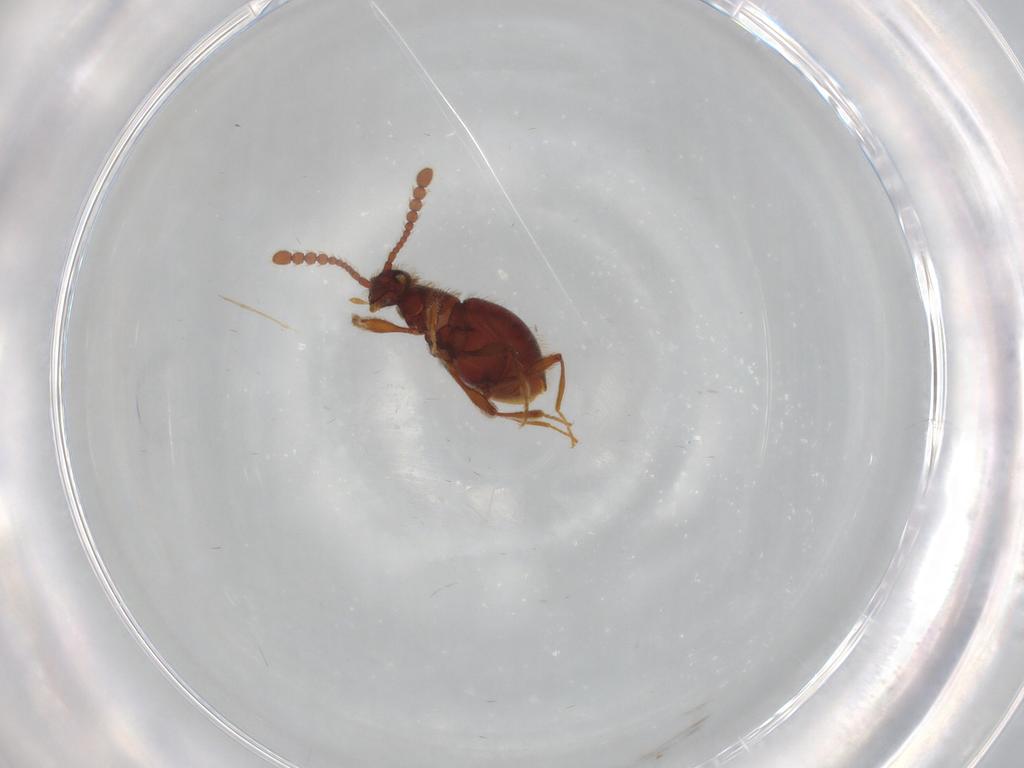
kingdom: Animalia
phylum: Arthropoda
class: Insecta
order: Coleoptera
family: Staphylinidae
